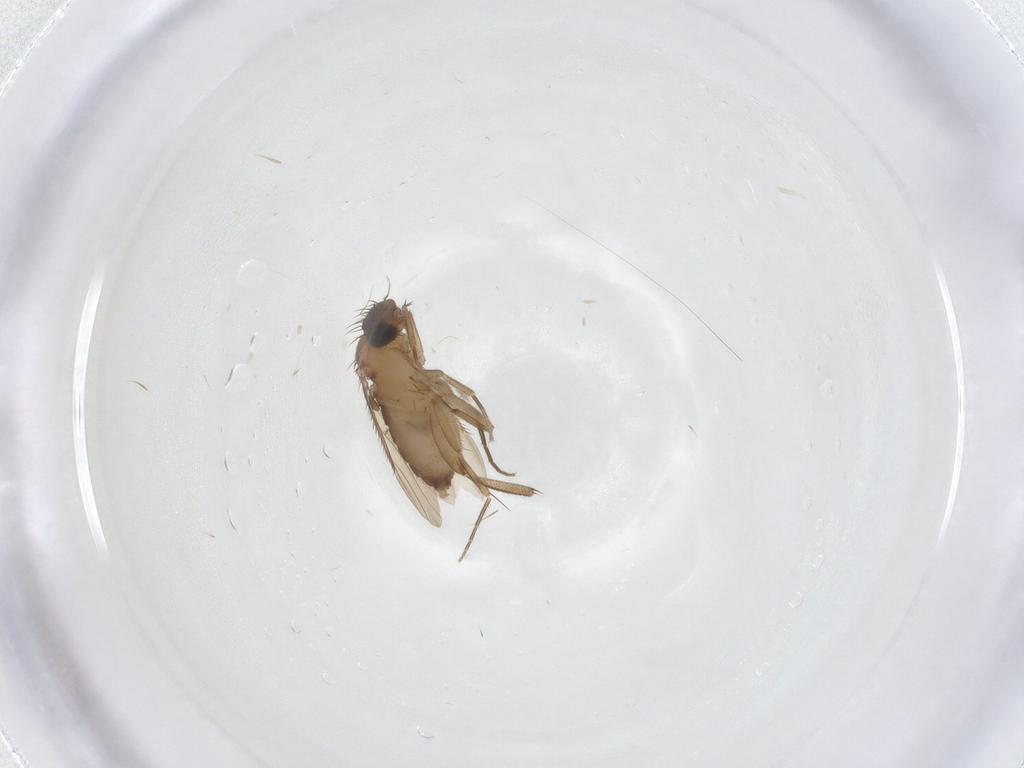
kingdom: Animalia
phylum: Arthropoda
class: Insecta
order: Diptera
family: Phoridae
